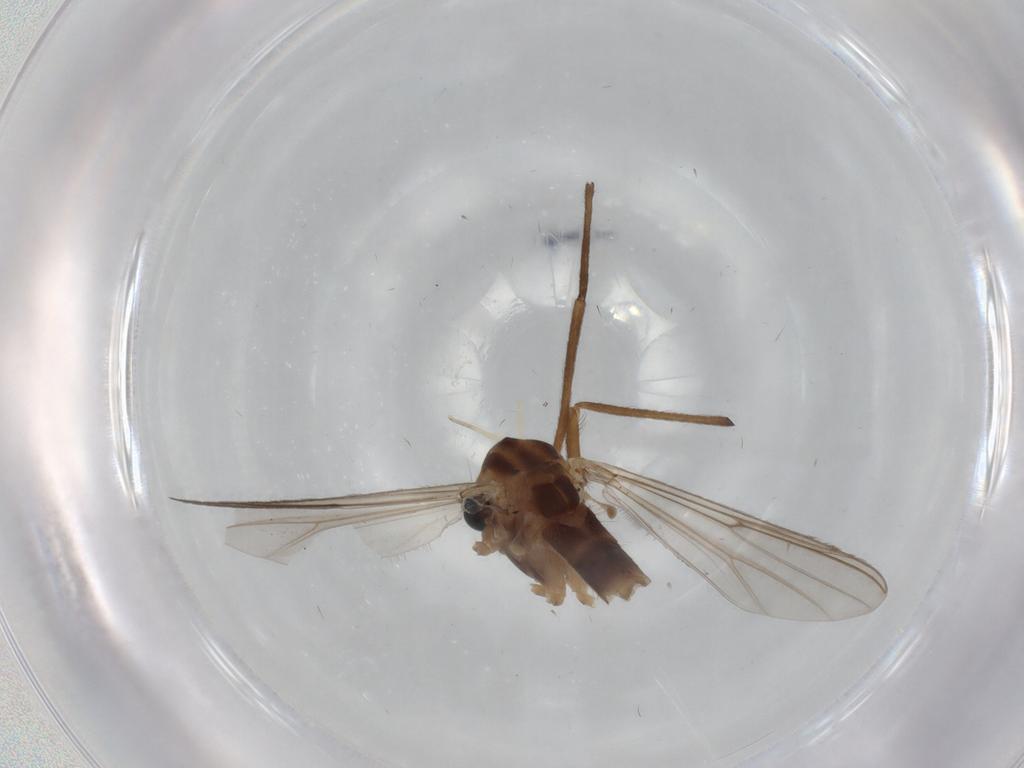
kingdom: Animalia
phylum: Arthropoda
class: Insecta
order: Diptera
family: Chironomidae
